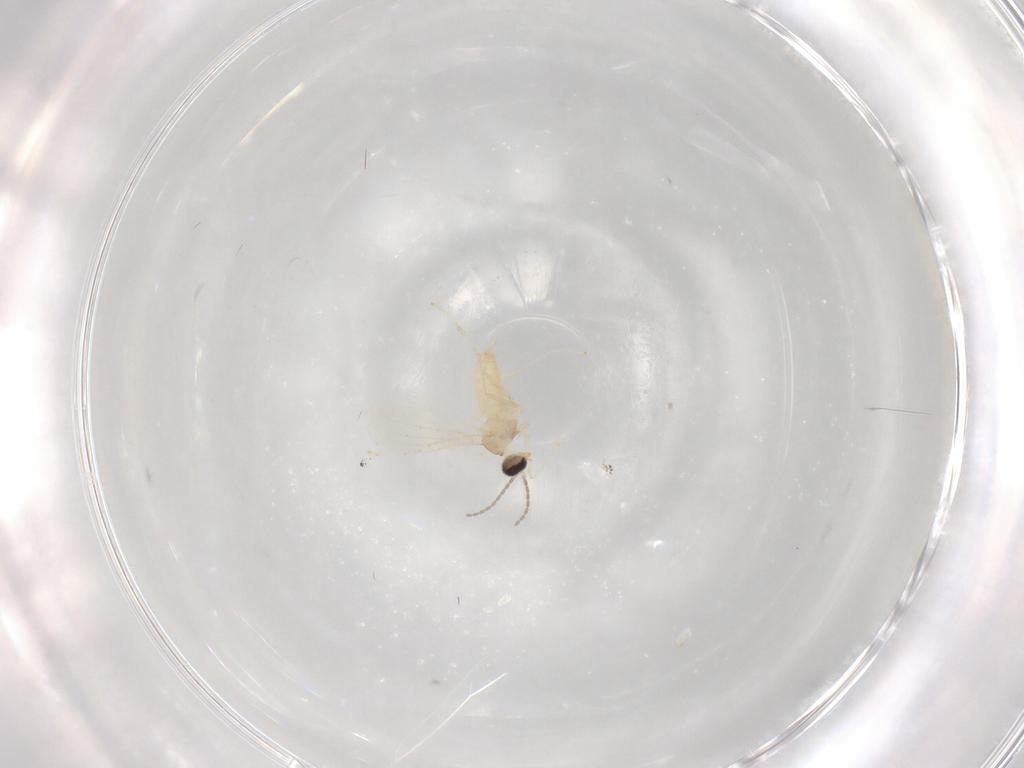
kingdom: Animalia
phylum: Arthropoda
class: Insecta
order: Diptera
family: Cecidomyiidae
